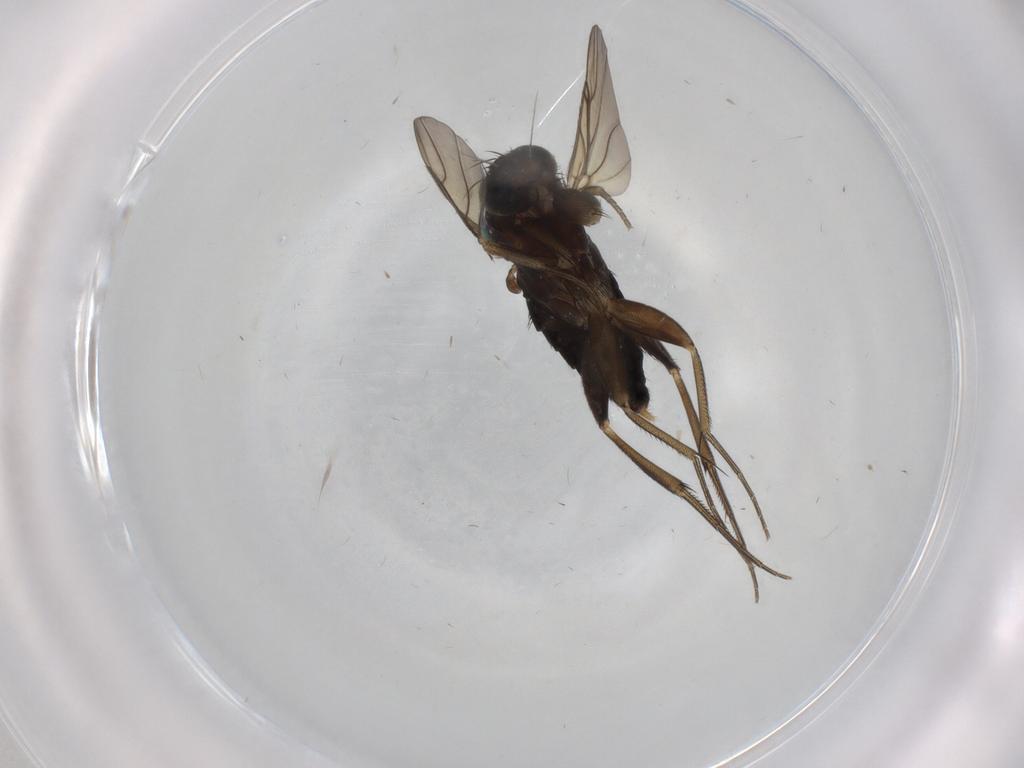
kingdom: Animalia
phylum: Arthropoda
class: Insecta
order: Diptera
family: Phoridae
